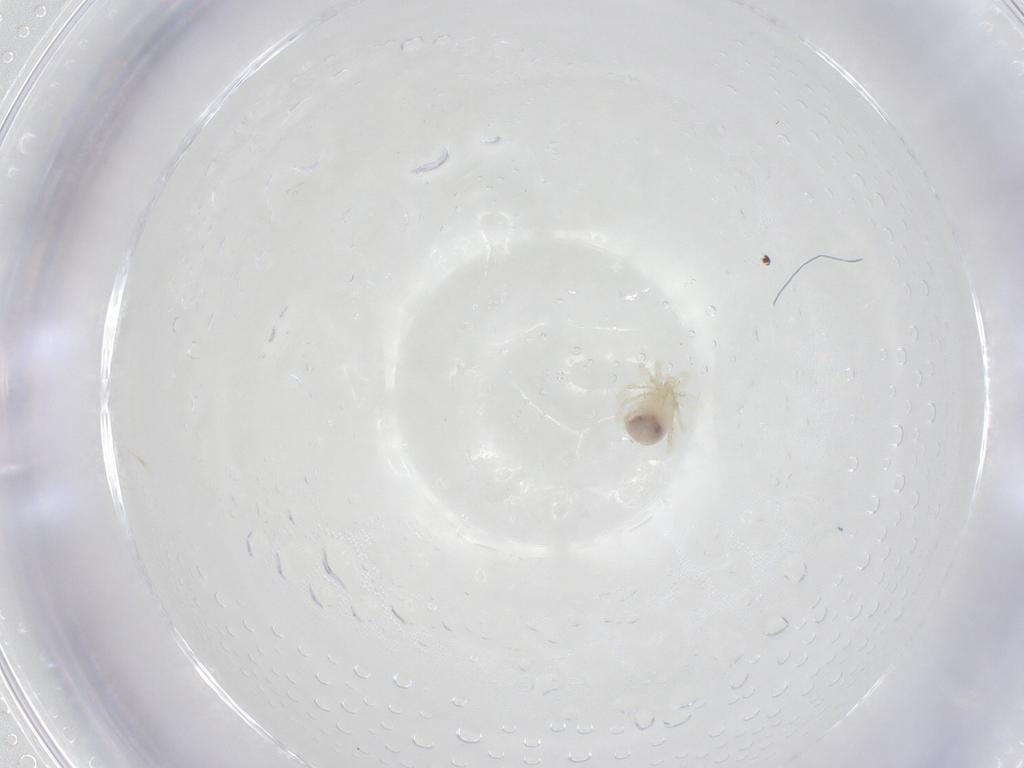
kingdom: Animalia
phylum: Arthropoda
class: Arachnida
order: Trombidiformes
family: Anystidae
